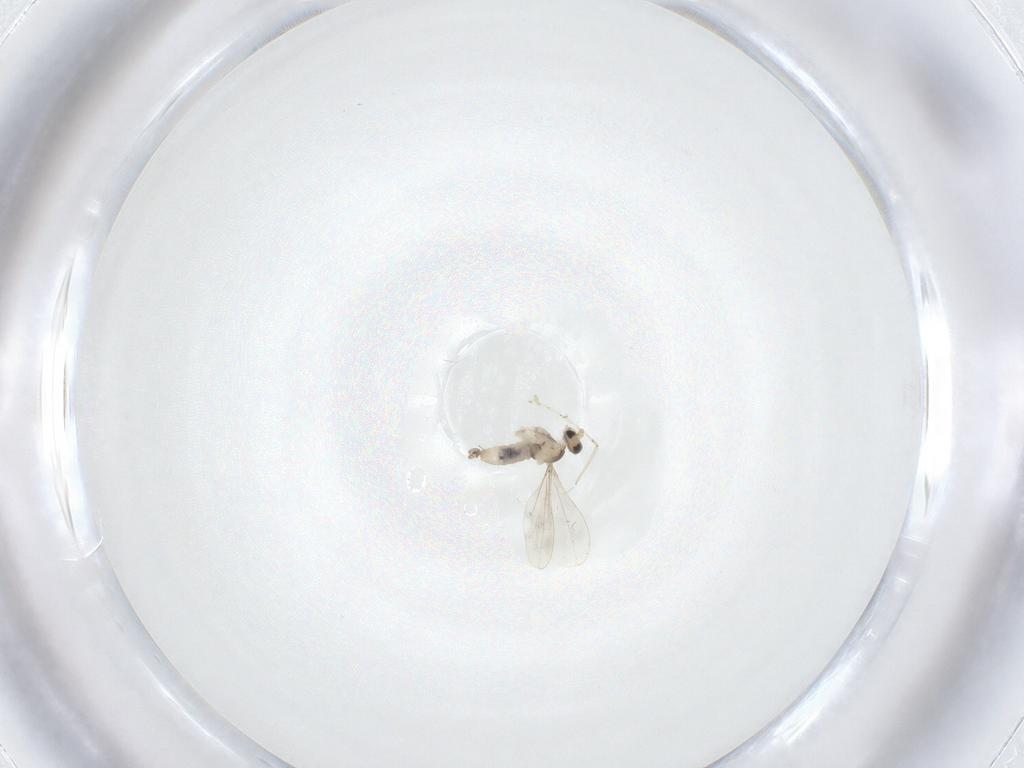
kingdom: Animalia
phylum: Arthropoda
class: Insecta
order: Diptera
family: Cecidomyiidae
